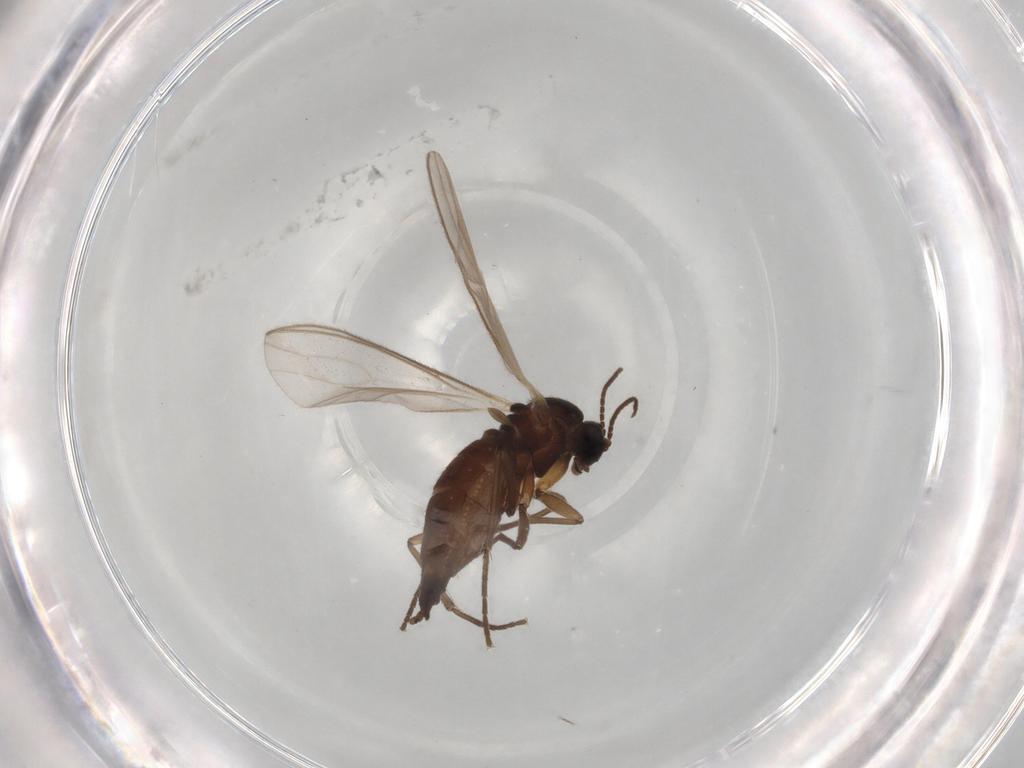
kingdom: Animalia
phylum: Arthropoda
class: Insecta
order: Diptera
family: Sciaridae
